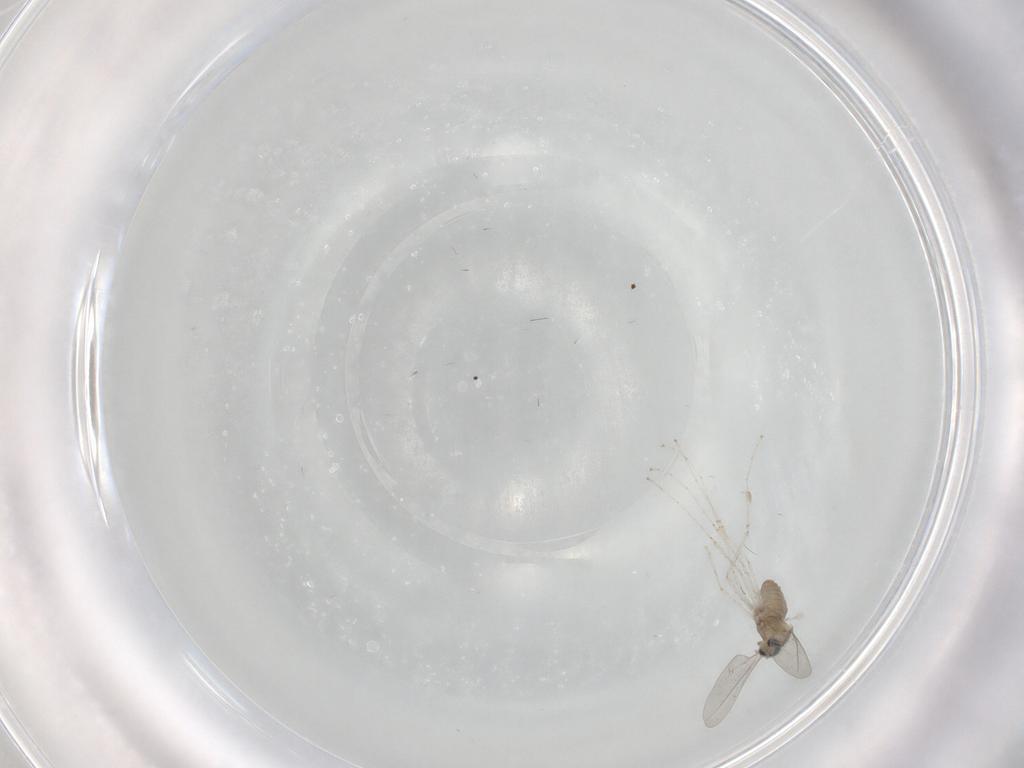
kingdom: Animalia
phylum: Arthropoda
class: Insecta
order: Diptera
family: Cecidomyiidae
